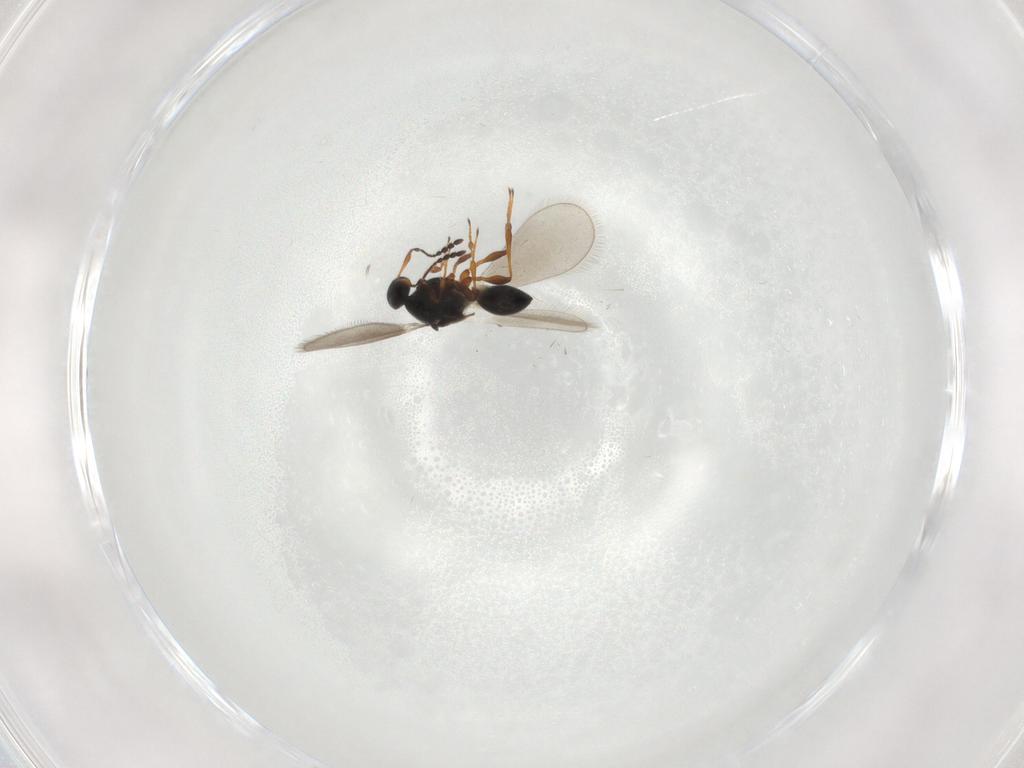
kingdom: Animalia
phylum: Arthropoda
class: Insecta
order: Hymenoptera
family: Platygastridae
